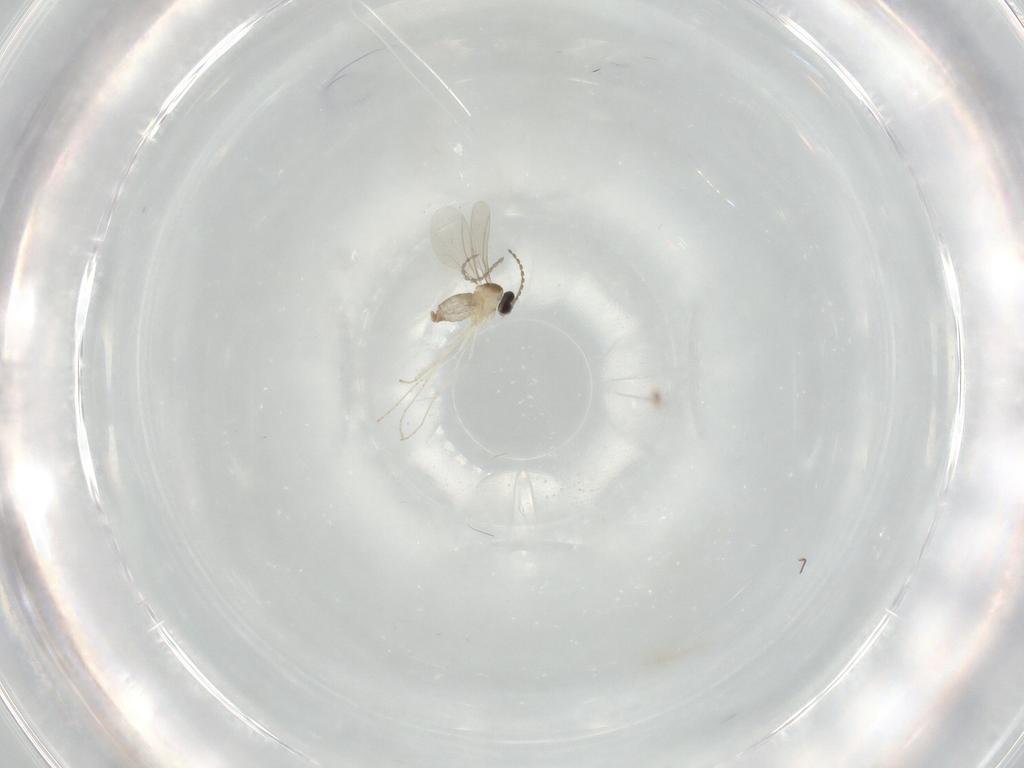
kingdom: Animalia
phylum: Arthropoda
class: Insecta
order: Diptera
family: Cecidomyiidae
